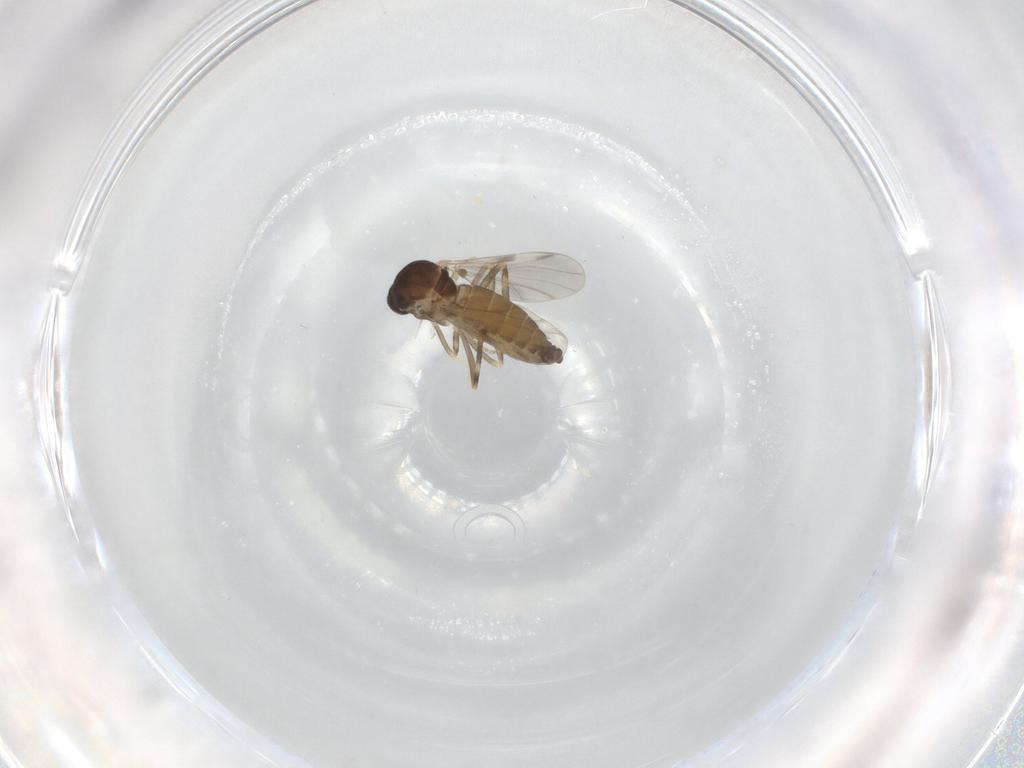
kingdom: Animalia
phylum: Arthropoda
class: Insecta
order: Diptera
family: Ceratopogonidae
